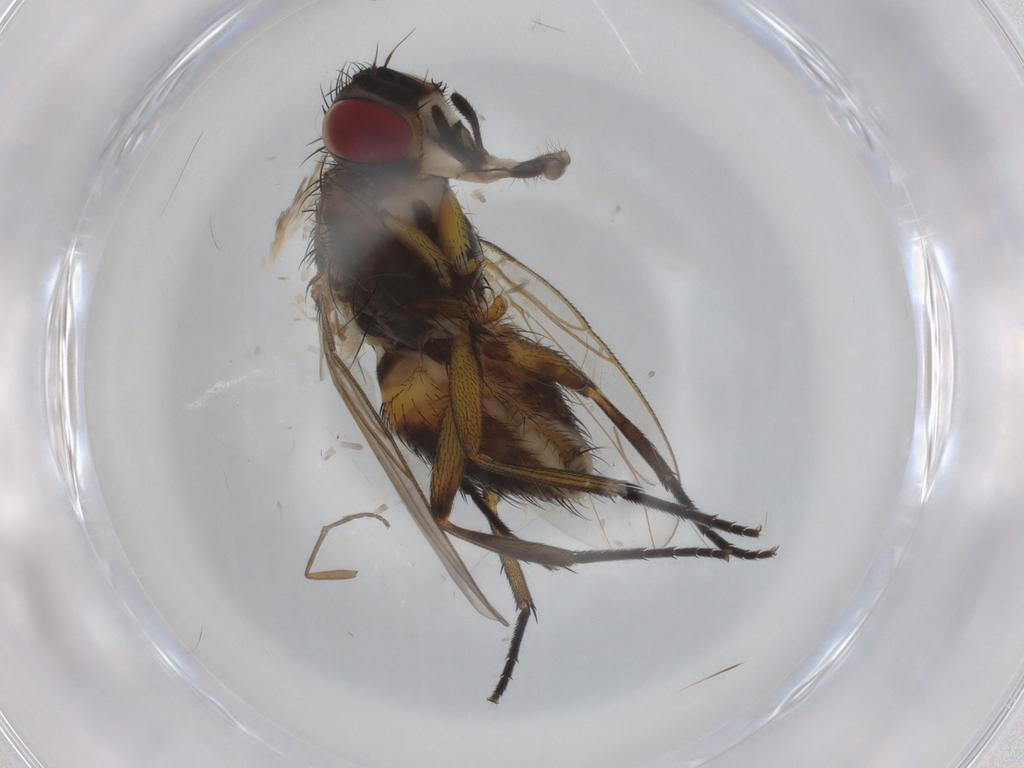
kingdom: Animalia
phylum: Arthropoda
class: Insecta
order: Diptera
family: Muscidae
